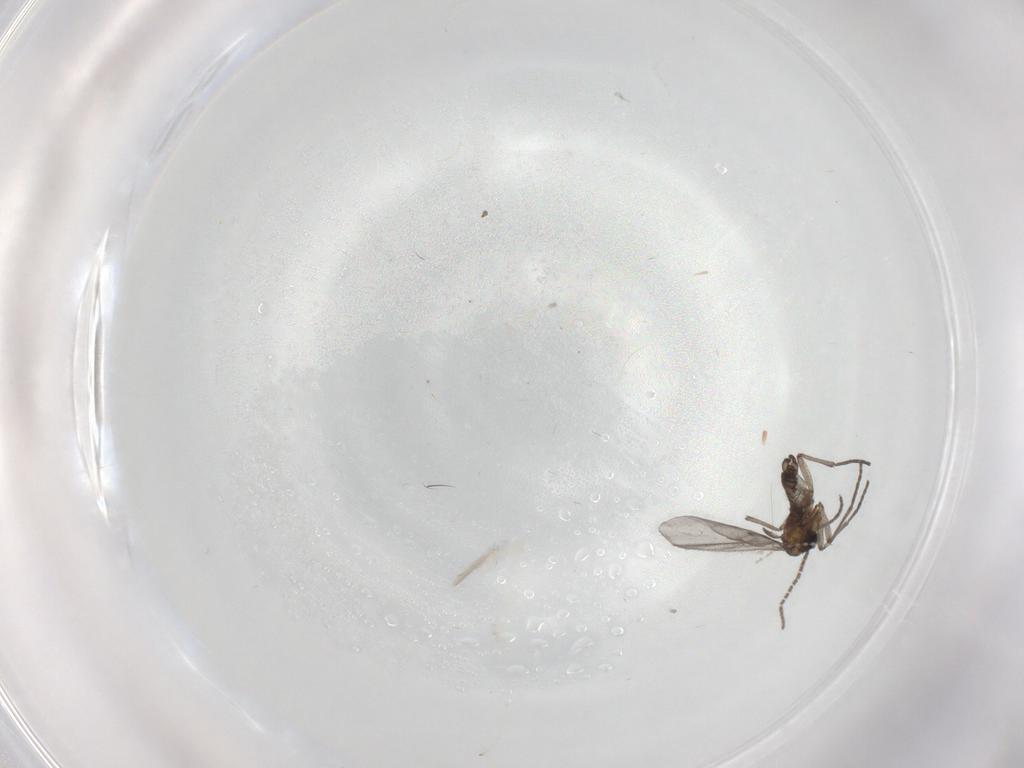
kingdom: Animalia
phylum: Arthropoda
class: Insecta
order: Diptera
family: Sciaridae
